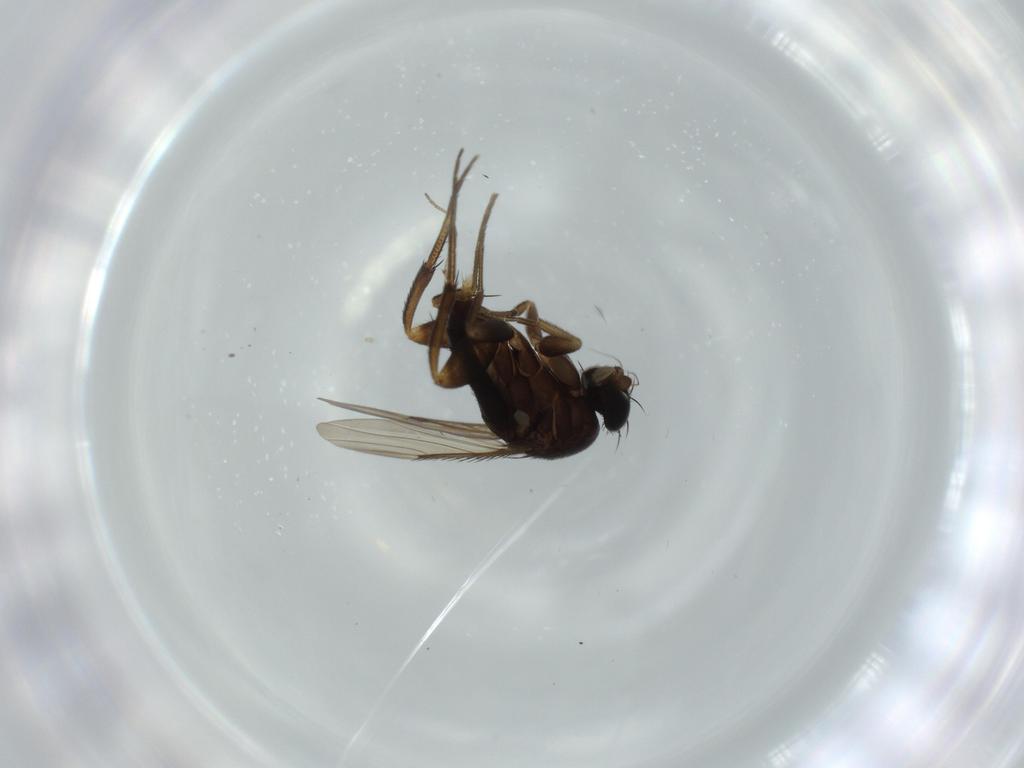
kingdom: Animalia
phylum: Arthropoda
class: Insecta
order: Diptera
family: Phoridae
